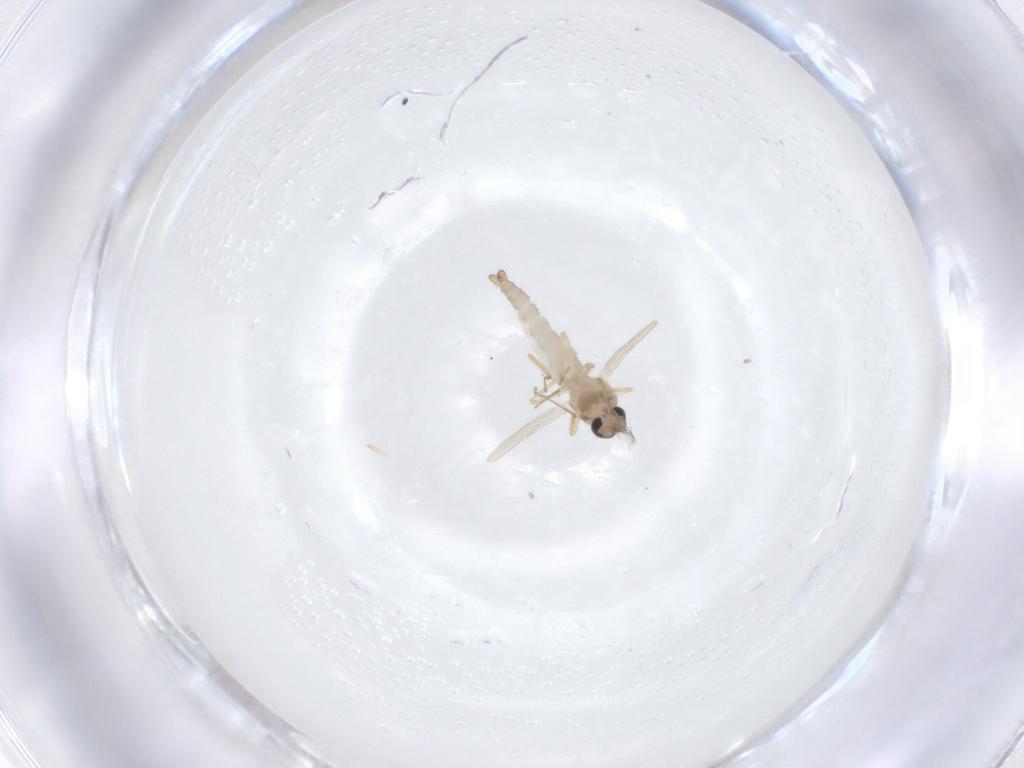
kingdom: Animalia
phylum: Arthropoda
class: Insecta
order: Diptera
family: Ceratopogonidae
